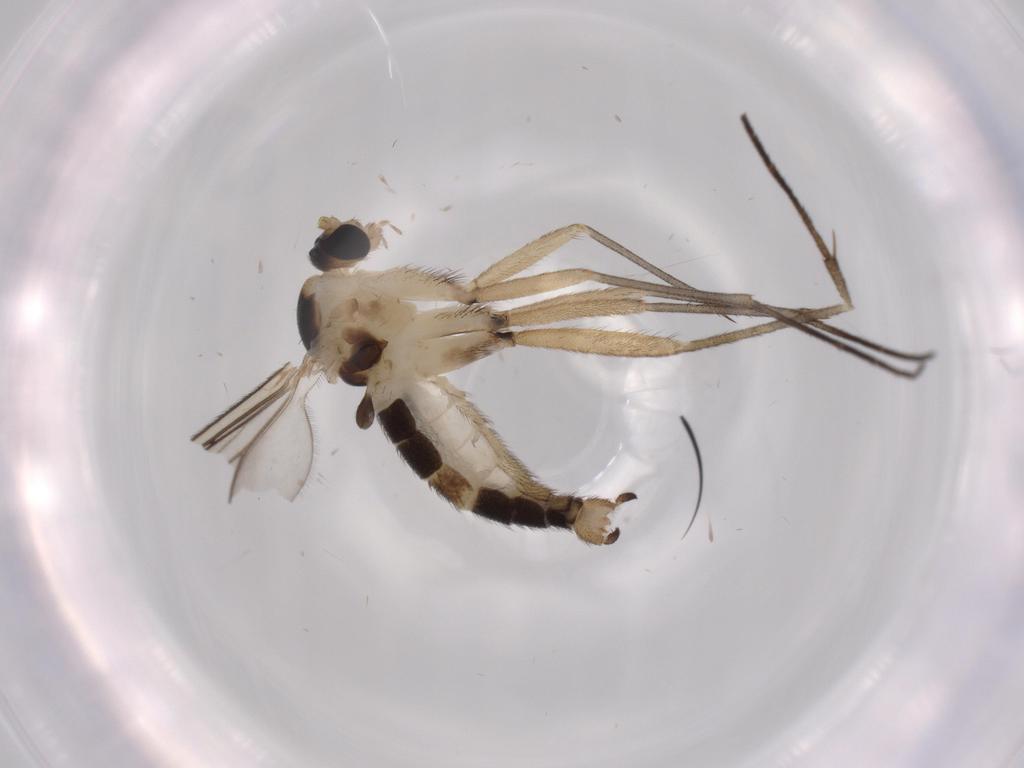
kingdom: Animalia
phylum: Arthropoda
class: Insecta
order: Diptera
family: Sciaridae
